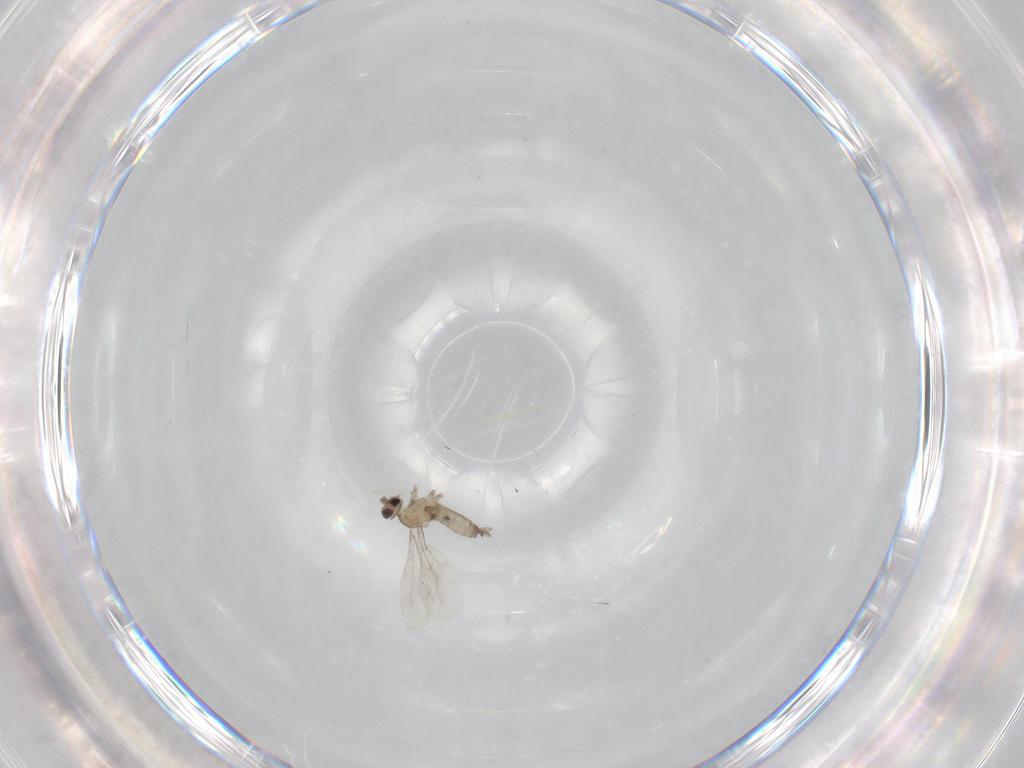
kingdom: Animalia
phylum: Arthropoda
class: Insecta
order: Diptera
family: Cecidomyiidae
